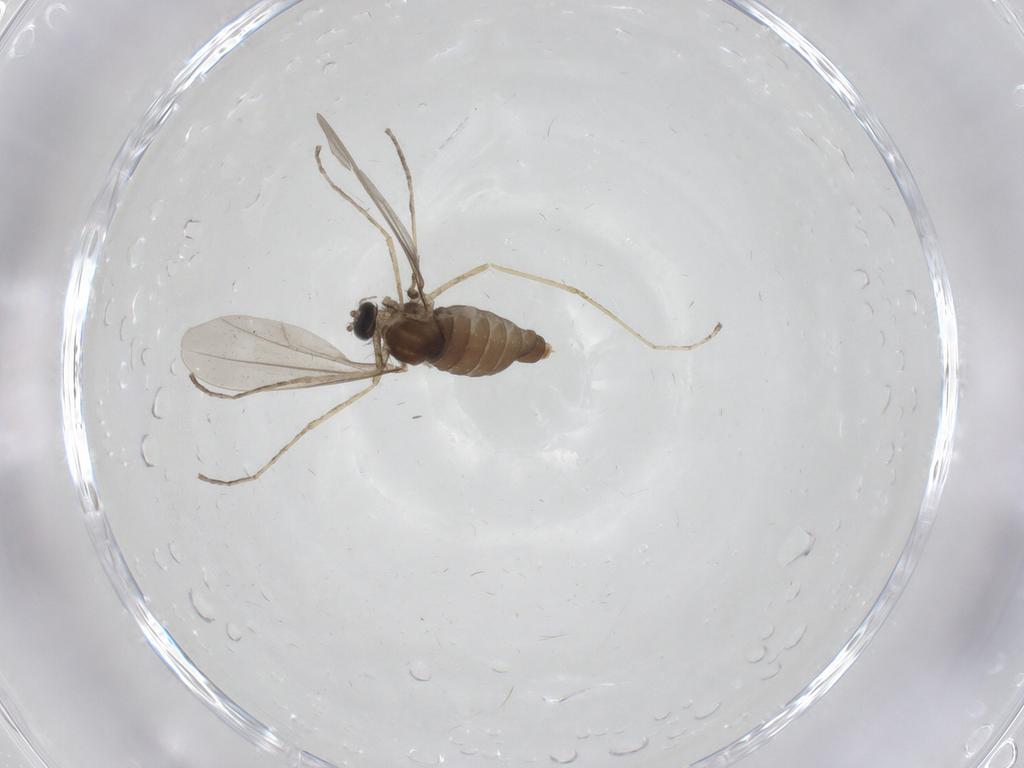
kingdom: Animalia
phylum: Arthropoda
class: Insecta
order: Diptera
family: Cecidomyiidae
